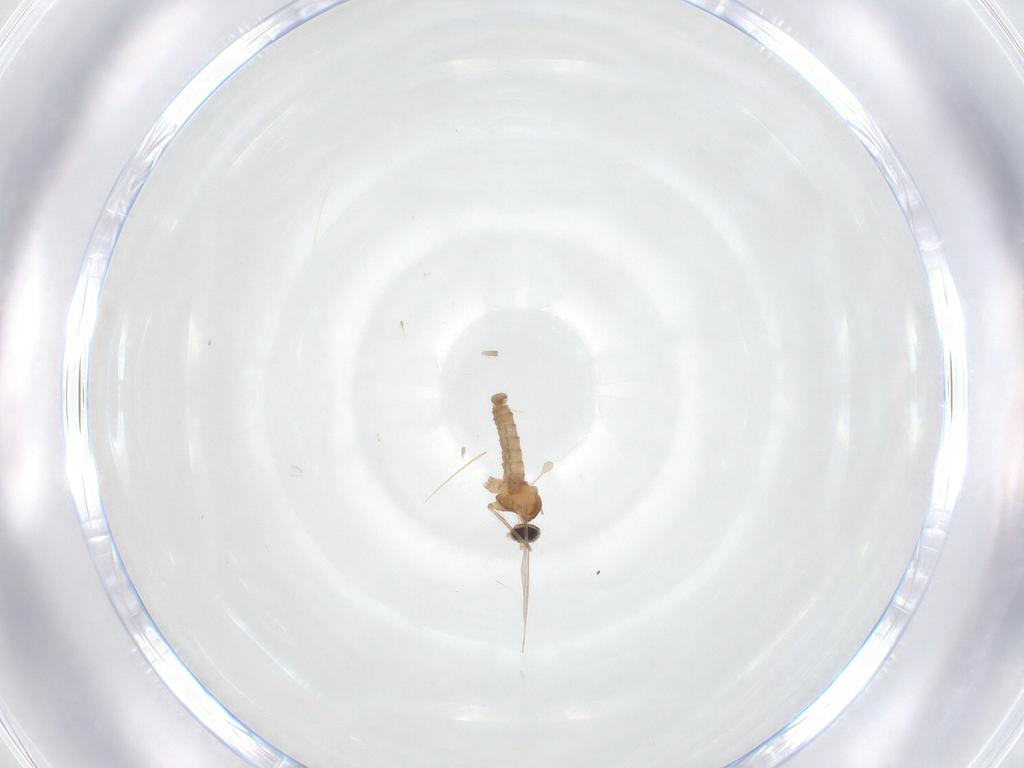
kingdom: Animalia
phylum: Arthropoda
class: Insecta
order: Diptera
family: Cecidomyiidae
